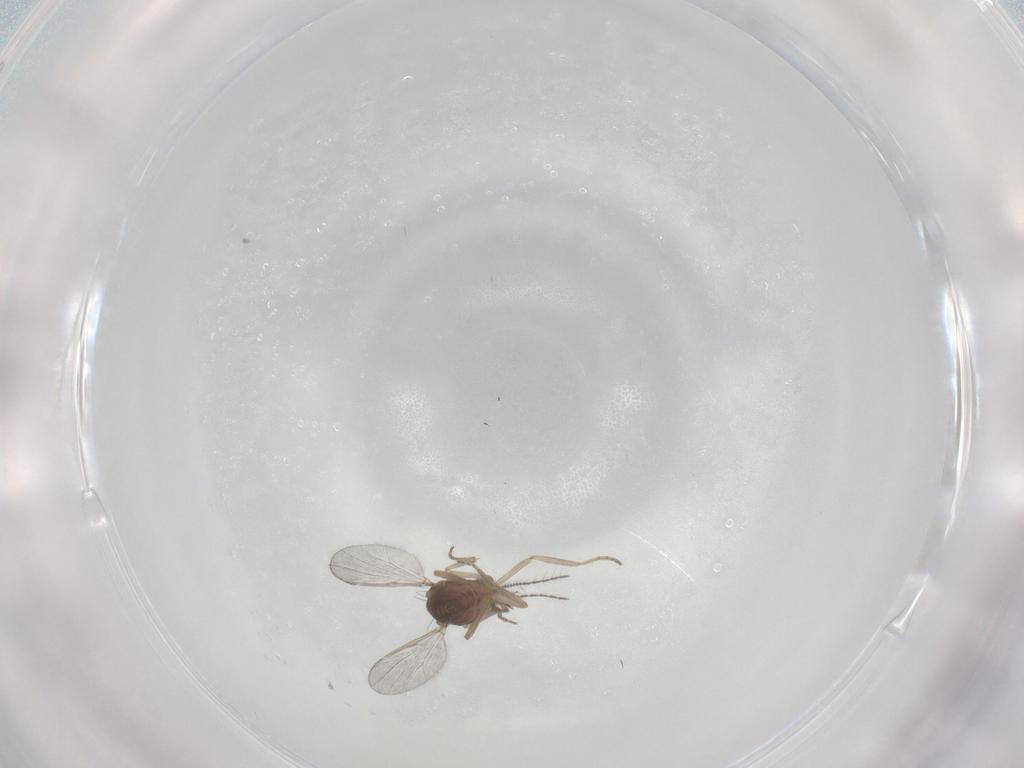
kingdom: Animalia
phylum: Arthropoda
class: Insecta
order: Diptera
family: Ceratopogonidae
